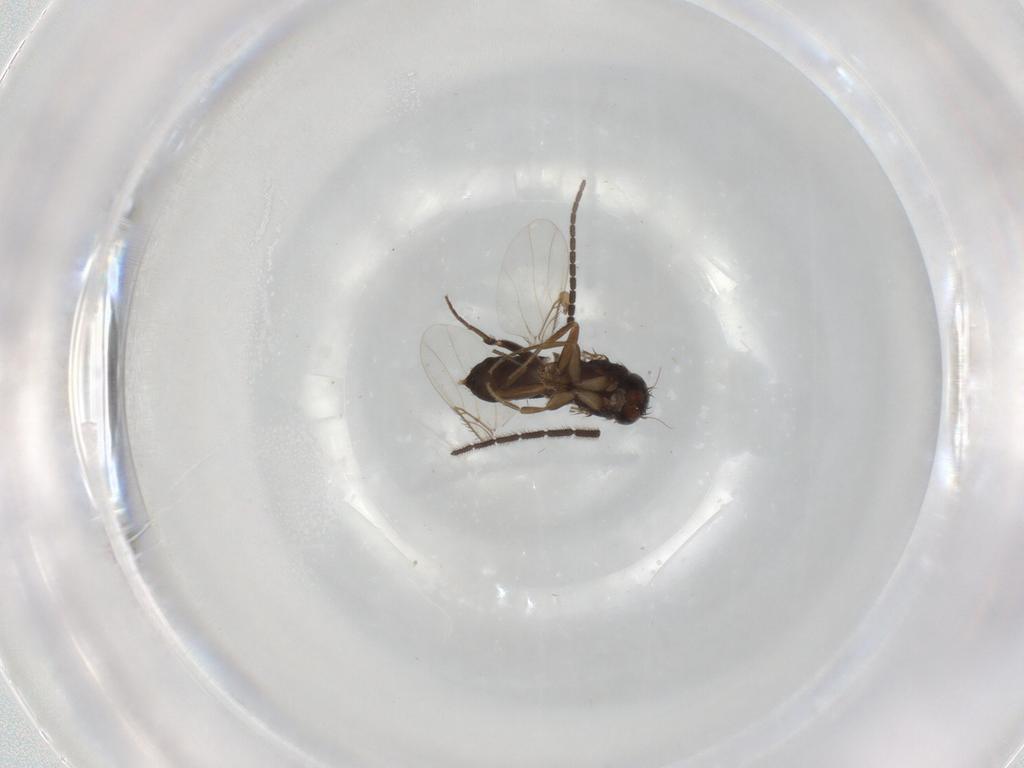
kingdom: Animalia
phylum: Arthropoda
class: Insecta
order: Diptera
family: Phoridae
